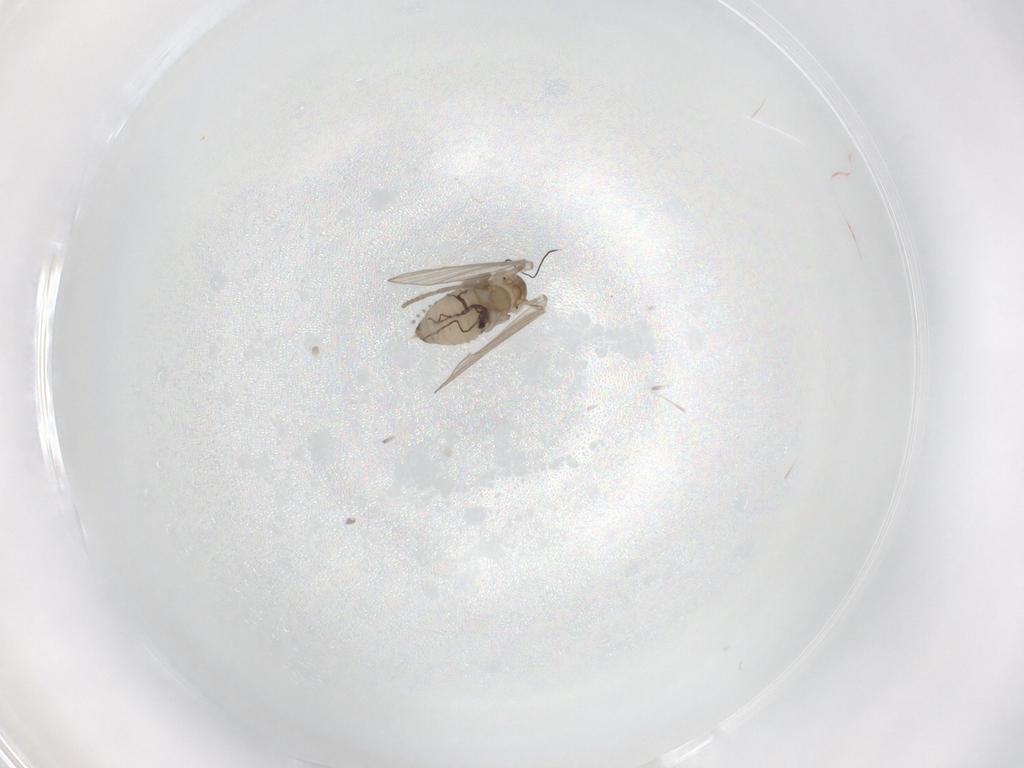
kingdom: Animalia
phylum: Arthropoda
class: Insecta
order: Diptera
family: Psychodidae
